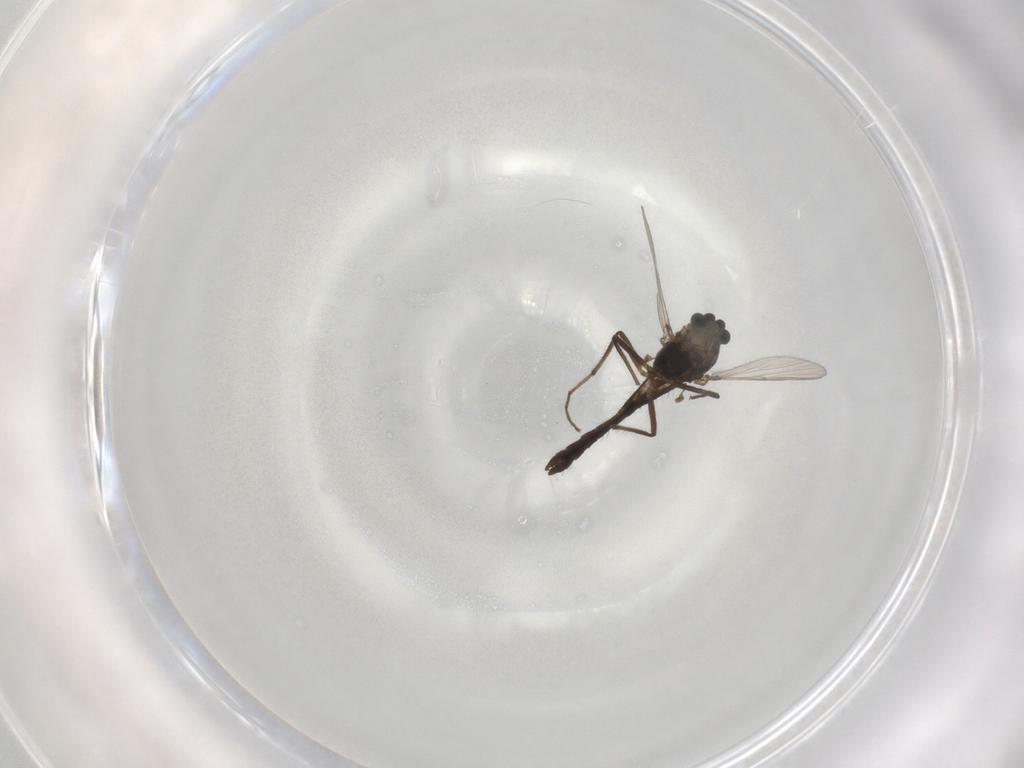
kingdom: Animalia
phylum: Arthropoda
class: Insecta
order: Diptera
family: Chironomidae
